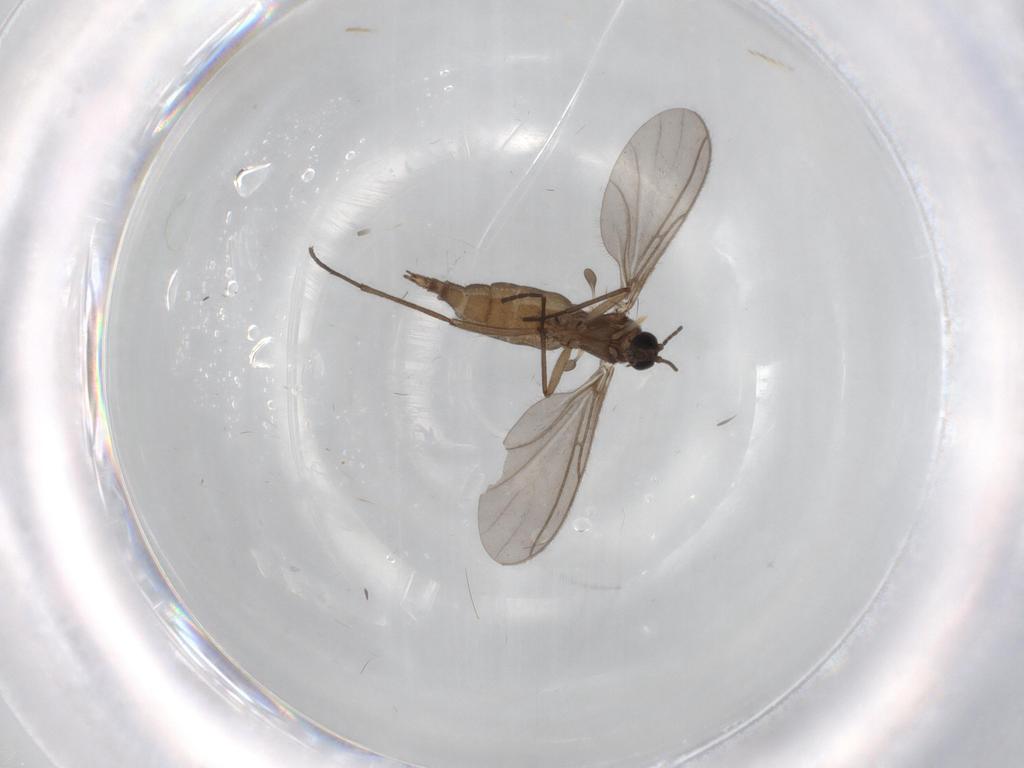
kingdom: Animalia
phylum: Arthropoda
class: Insecta
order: Diptera
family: Sciaridae
